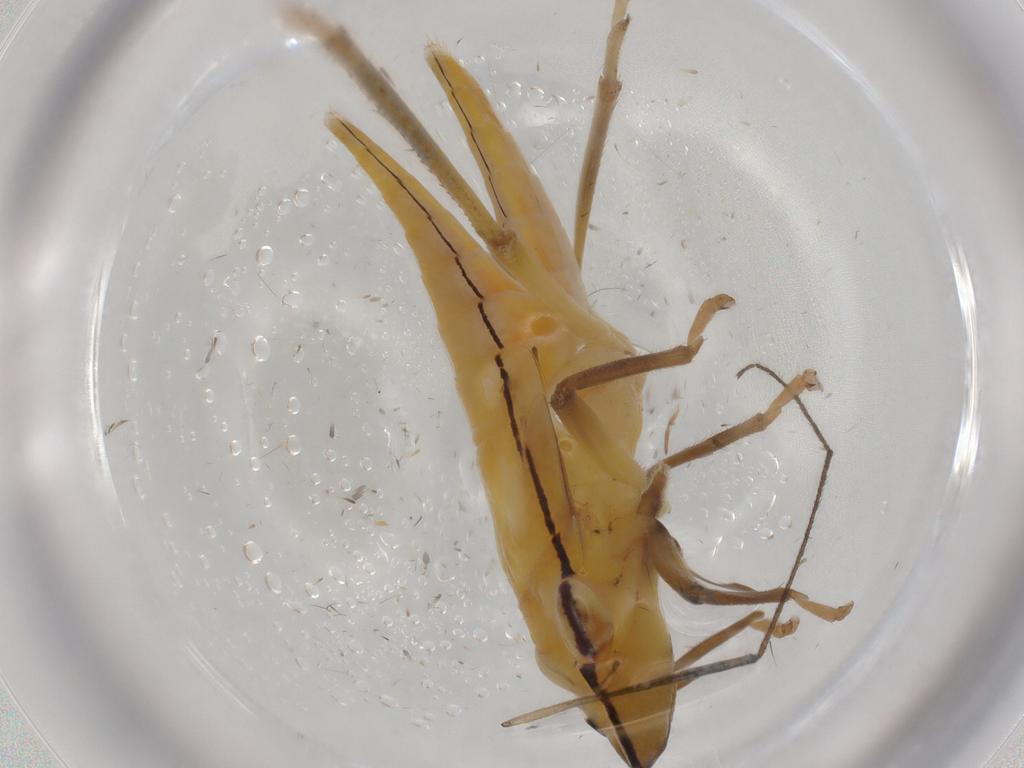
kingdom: Animalia
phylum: Arthropoda
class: Insecta
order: Hemiptera
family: Cicadellidae
